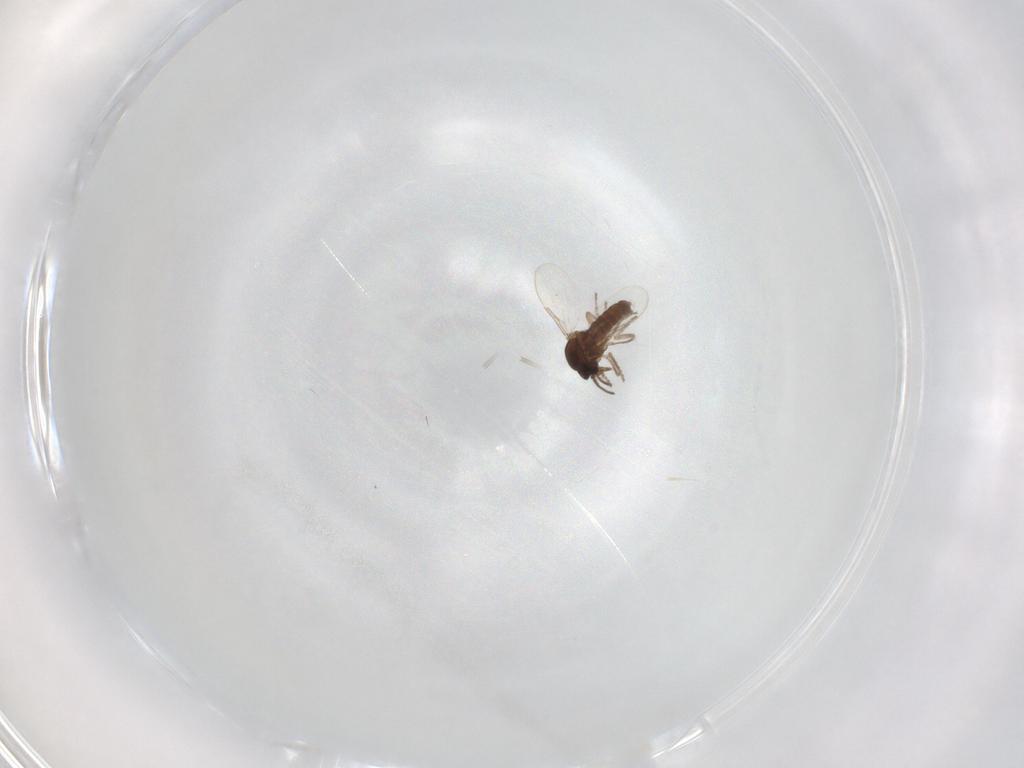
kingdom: Animalia
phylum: Arthropoda
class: Insecta
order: Diptera
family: Ceratopogonidae
